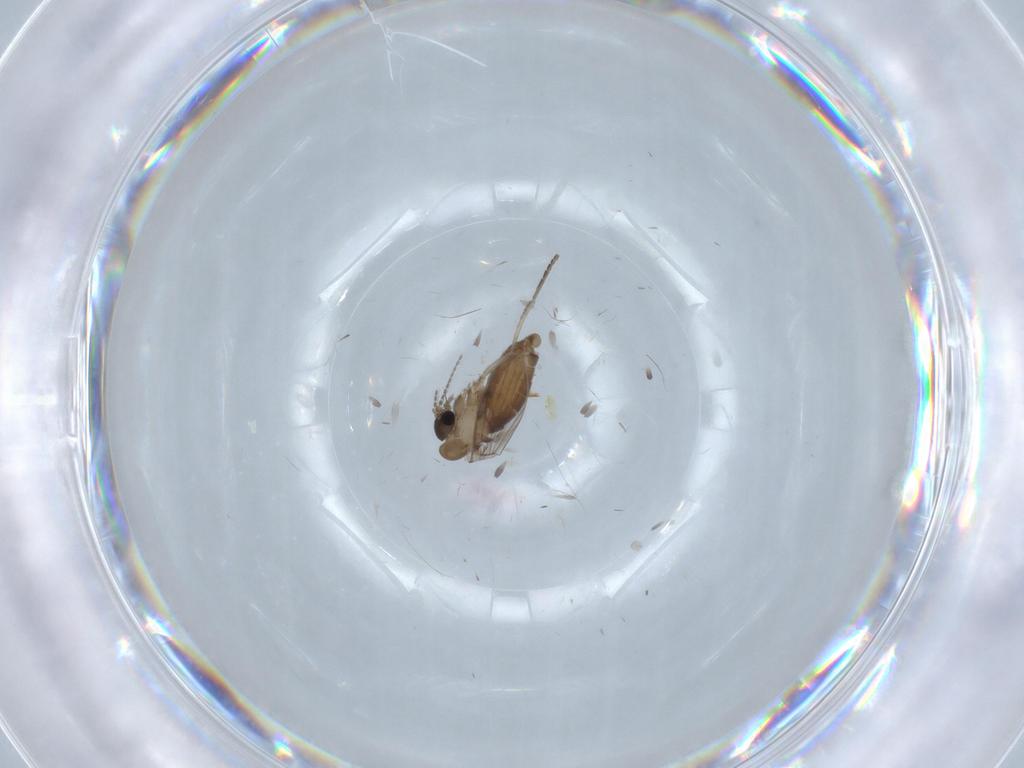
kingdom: Animalia
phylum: Arthropoda
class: Insecta
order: Diptera
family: Psychodidae
